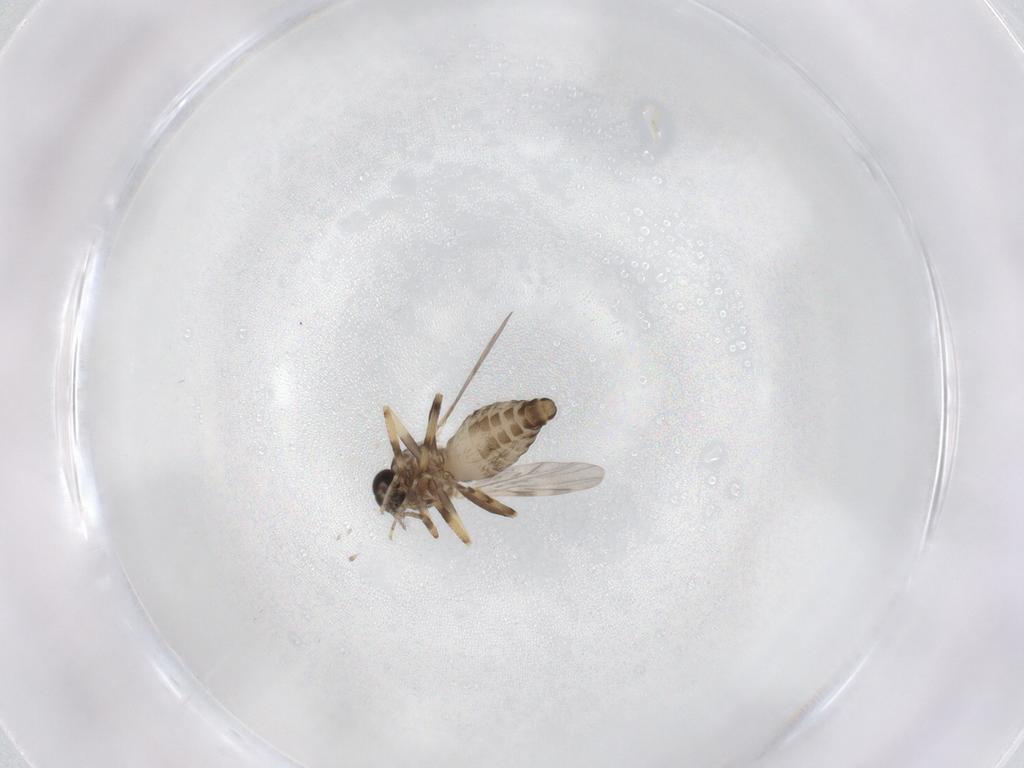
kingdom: Animalia
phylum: Arthropoda
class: Insecta
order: Diptera
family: Ceratopogonidae
